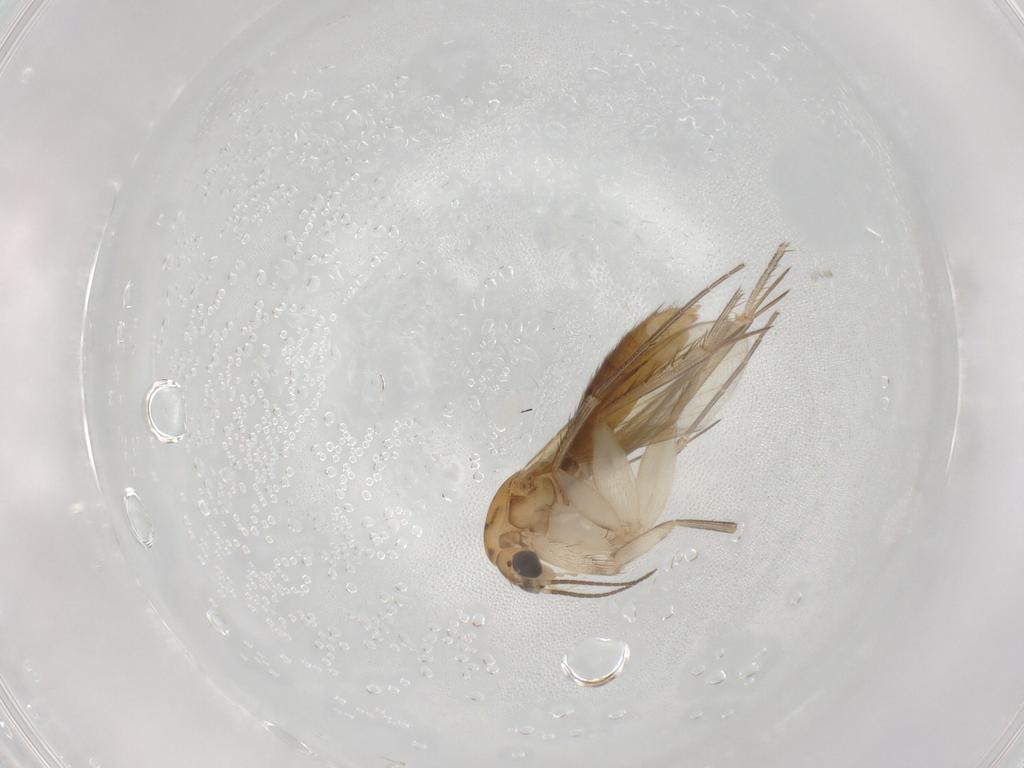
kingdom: Animalia
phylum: Arthropoda
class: Insecta
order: Diptera
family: Mycetophilidae
